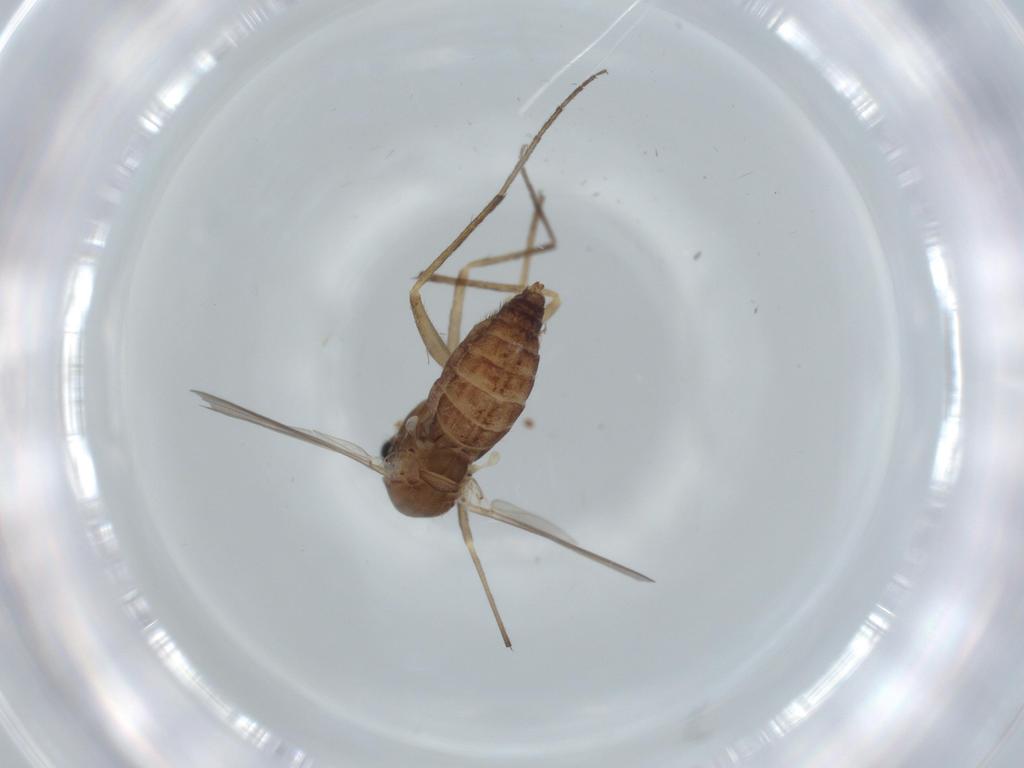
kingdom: Animalia
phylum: Arthropoda
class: Insecta
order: Diptera
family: Chironomidae
